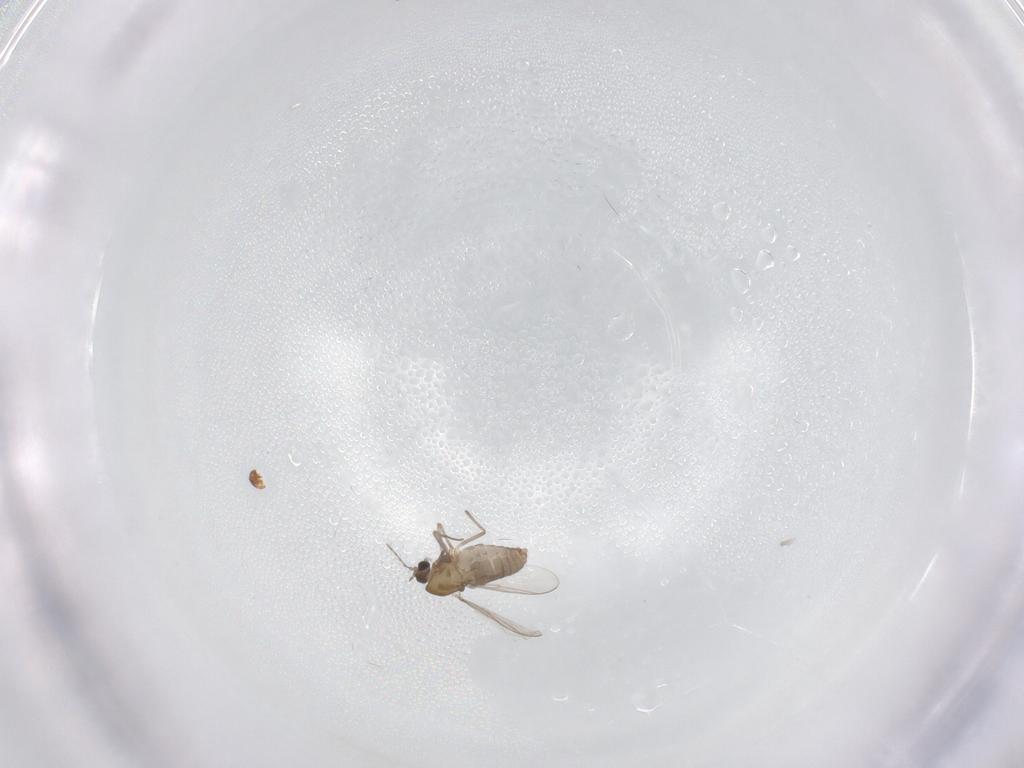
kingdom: Animalia
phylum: Arthropoda
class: Insecta
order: Diptera
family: Chironomidae
